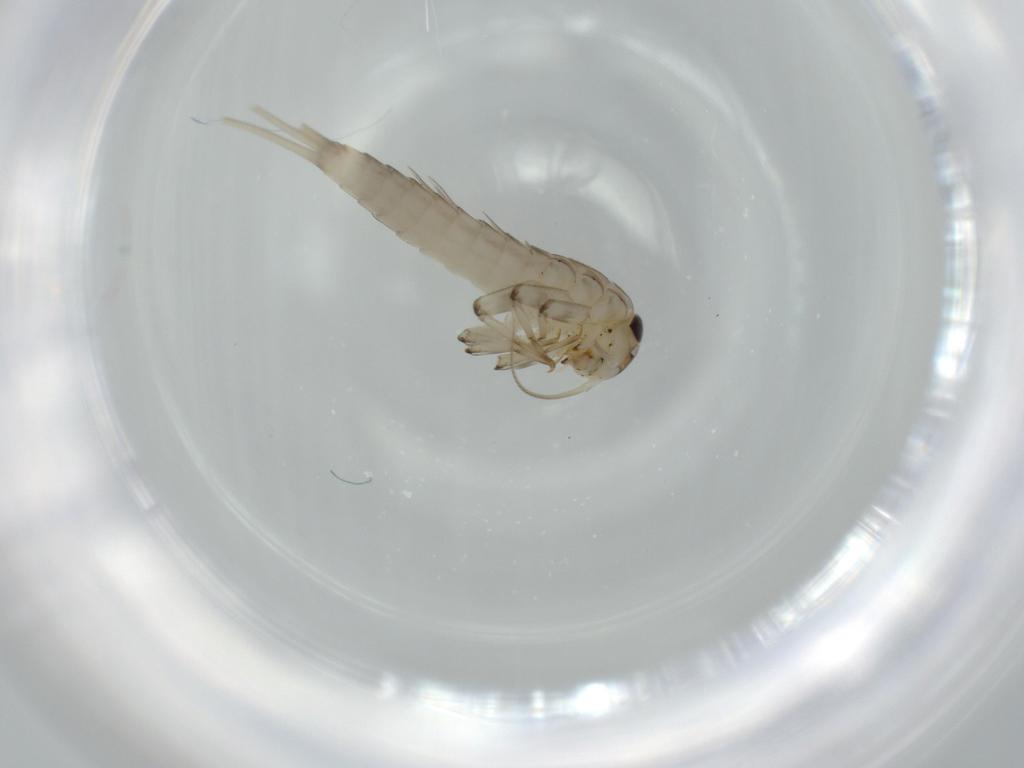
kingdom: Animalia
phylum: Arthropoda
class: Insecta
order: Ephemeroptera
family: Baetidae
